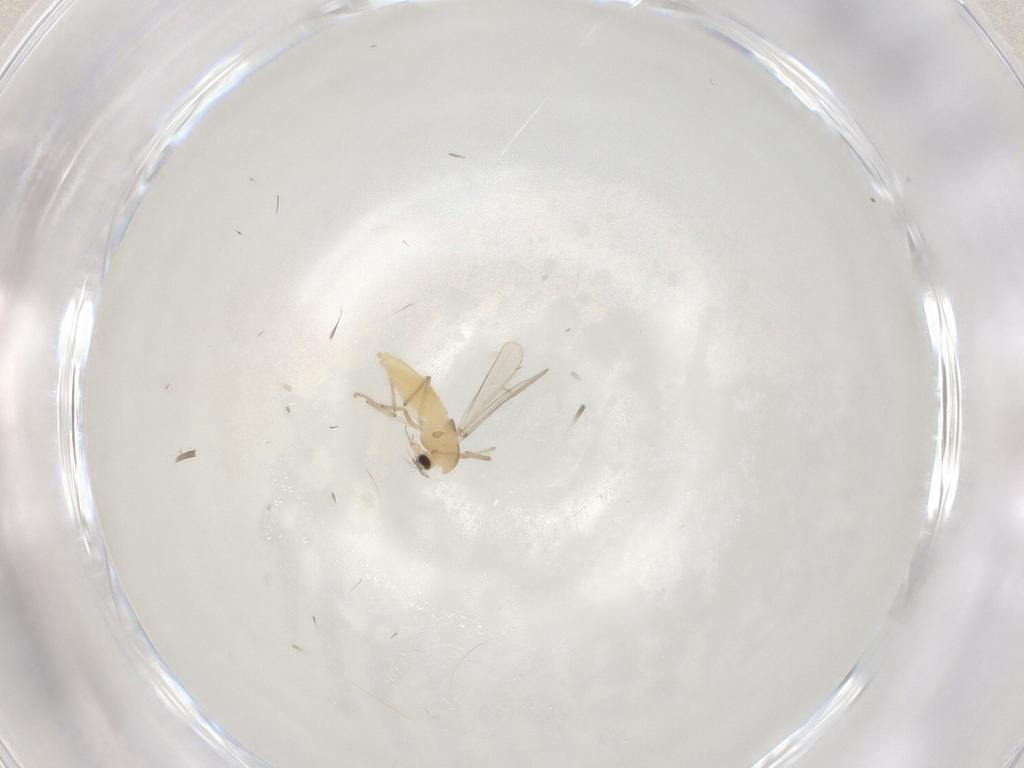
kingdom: Animalia
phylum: Arthropoda
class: Insecta
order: Diptera
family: Chironomidae
